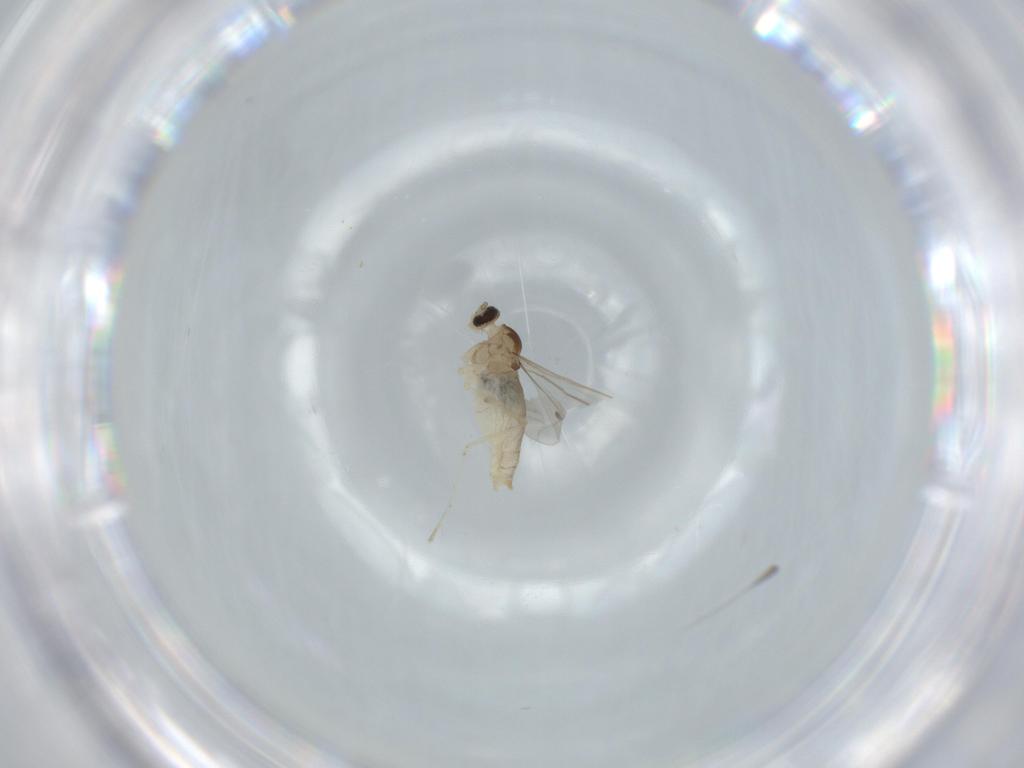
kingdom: Animalia
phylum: Arthropoda
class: Insecta
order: Diptera
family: Cecidomyiidae
